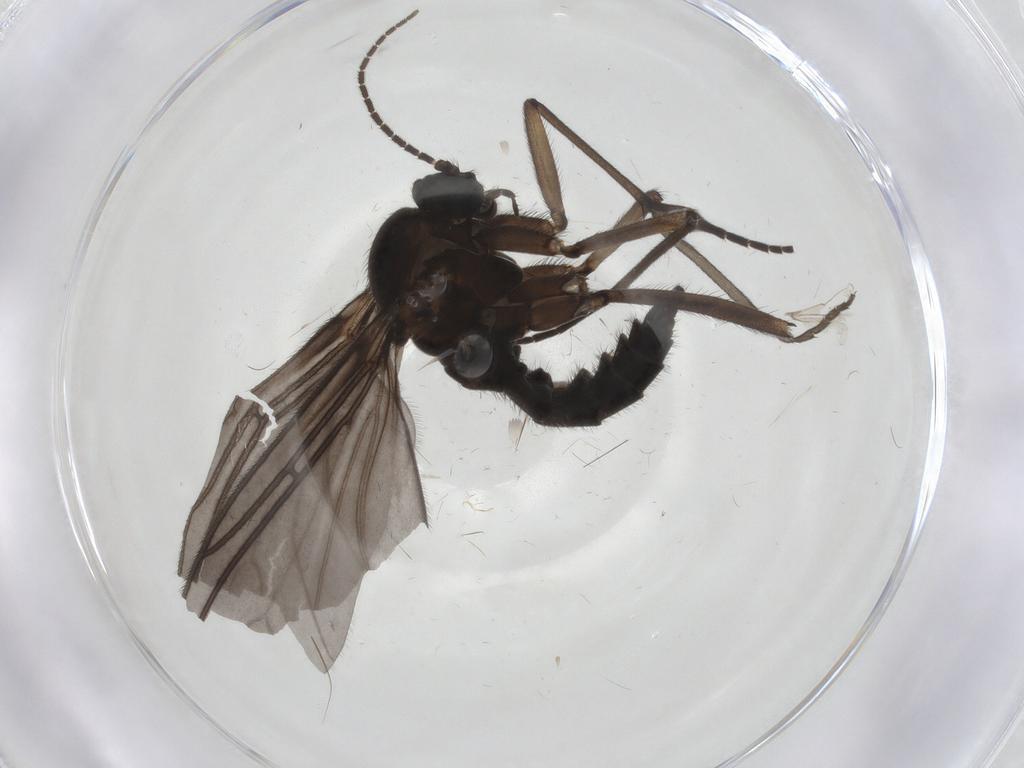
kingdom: Animalia
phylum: Arthropoda
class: Insecta
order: Diptera
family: Sciaridae
